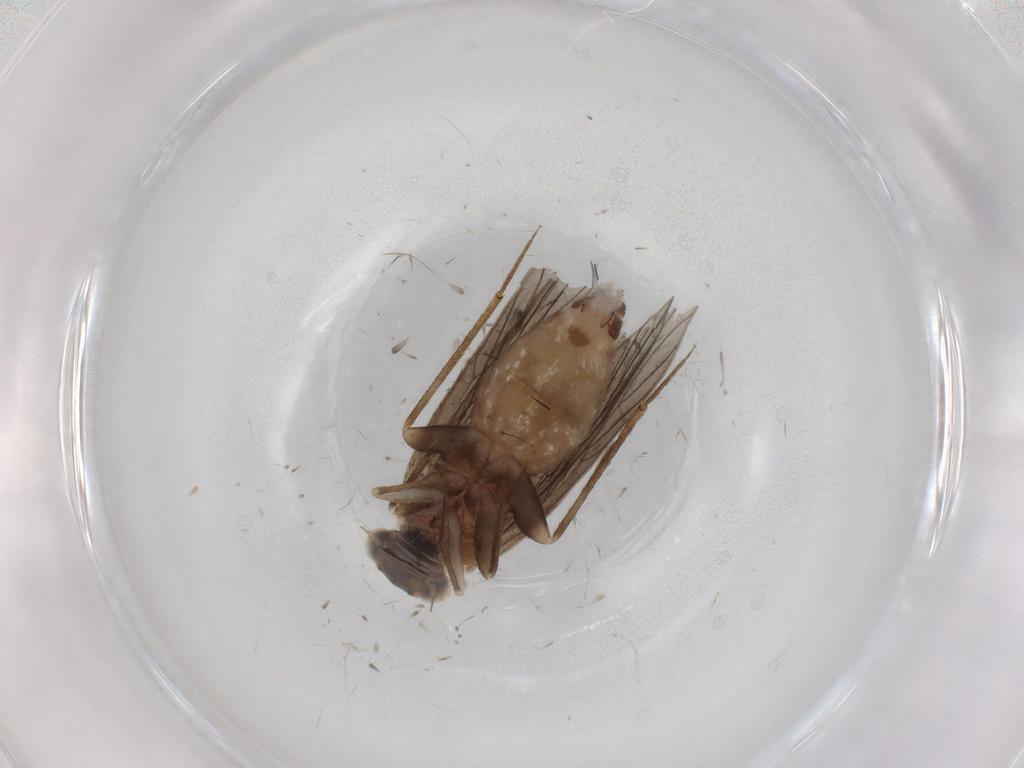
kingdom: Animalia
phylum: Arthropoda
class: Insecta
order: Psocodea
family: Lepidopsocidae
